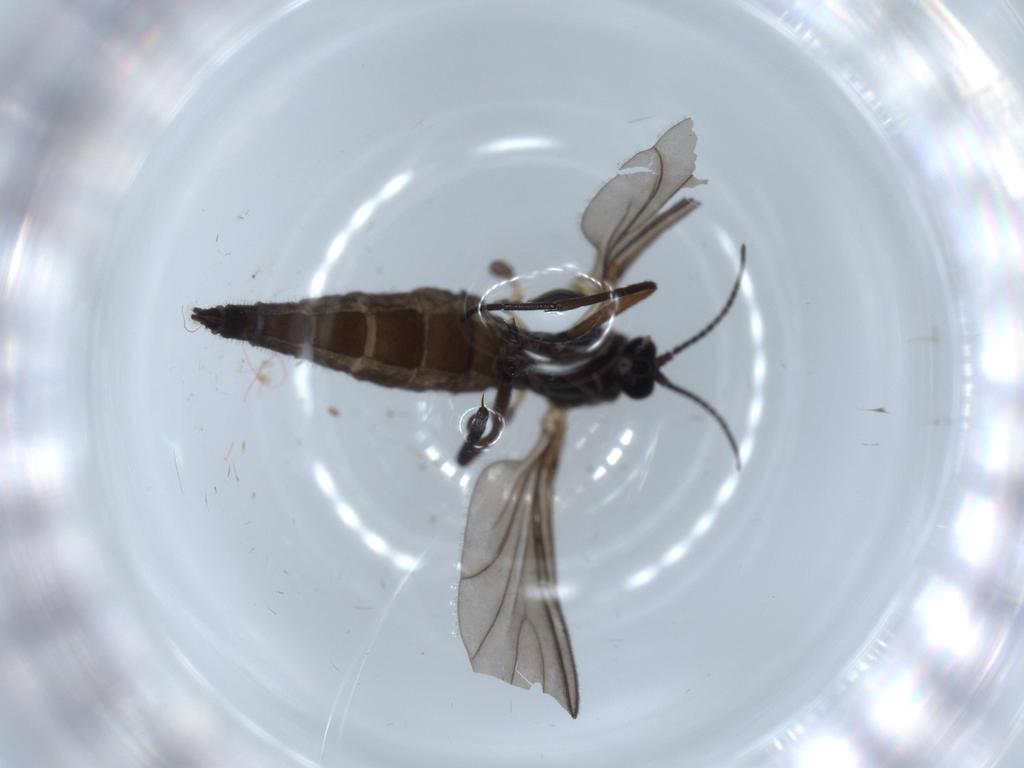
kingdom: Animalia
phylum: Arthropoda
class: Insecta
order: Diptera
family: Sciaridae
